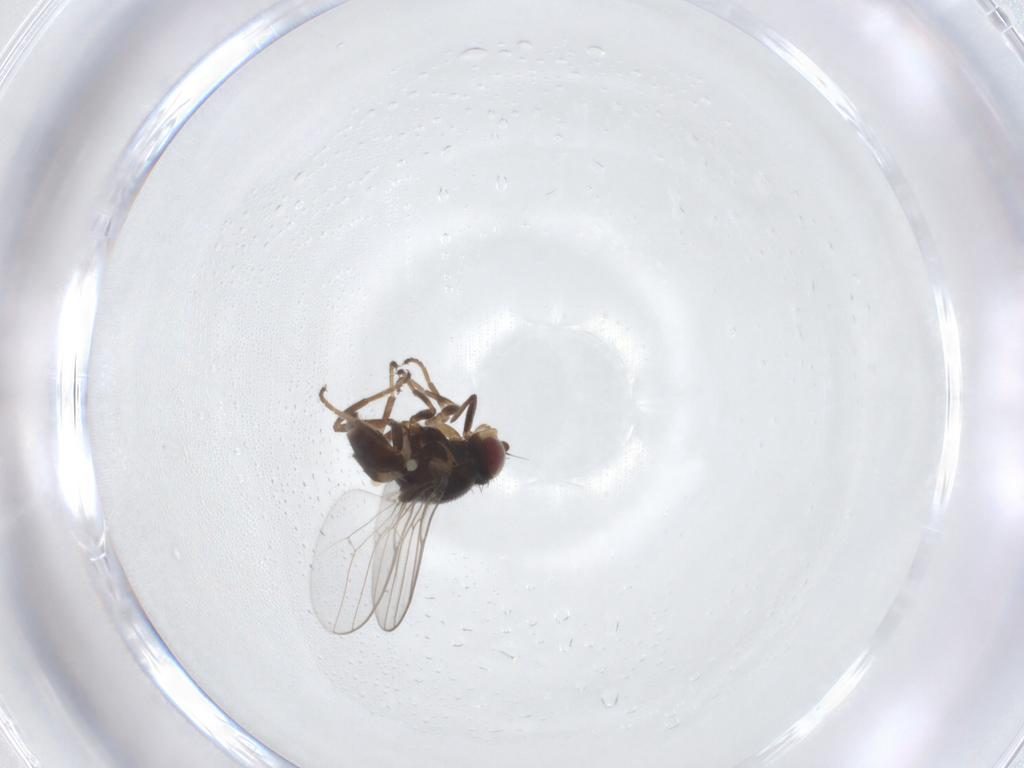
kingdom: Animalia
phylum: Arthropoda
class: Insecta
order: Diptera
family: Chloropidae
